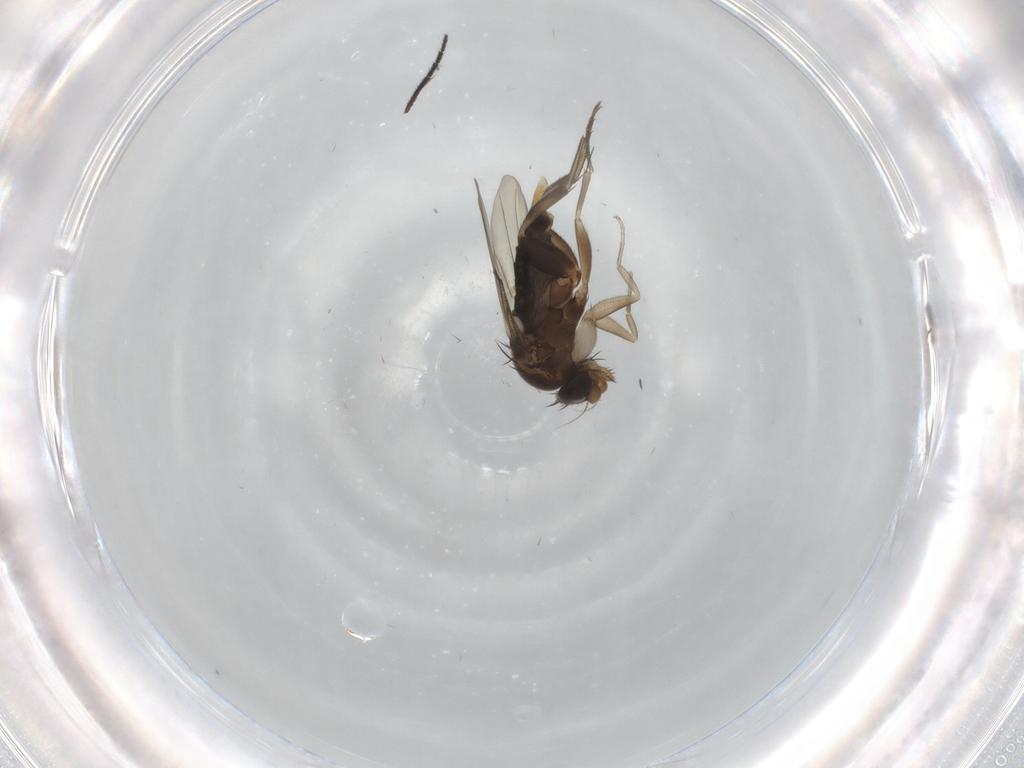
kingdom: Animalia
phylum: Arthropoda
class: Insecta
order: Diptera
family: Phoridae
